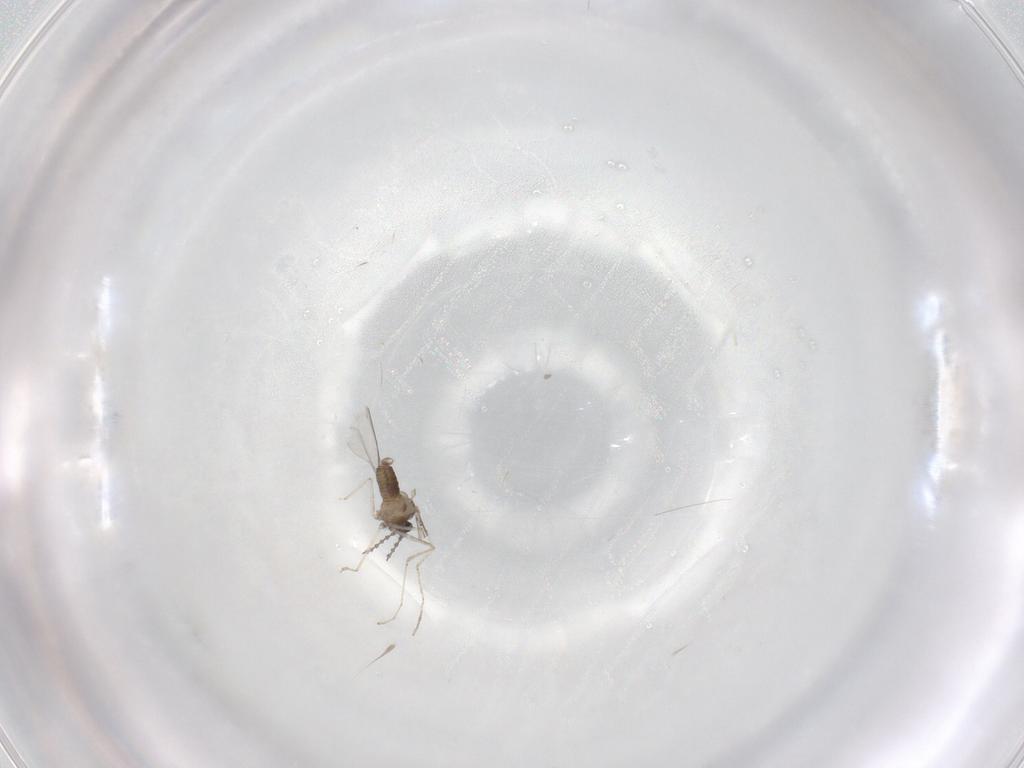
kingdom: Animalia
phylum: Arthropoda
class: Insecta
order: Diptera
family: Cecidomyiidae
